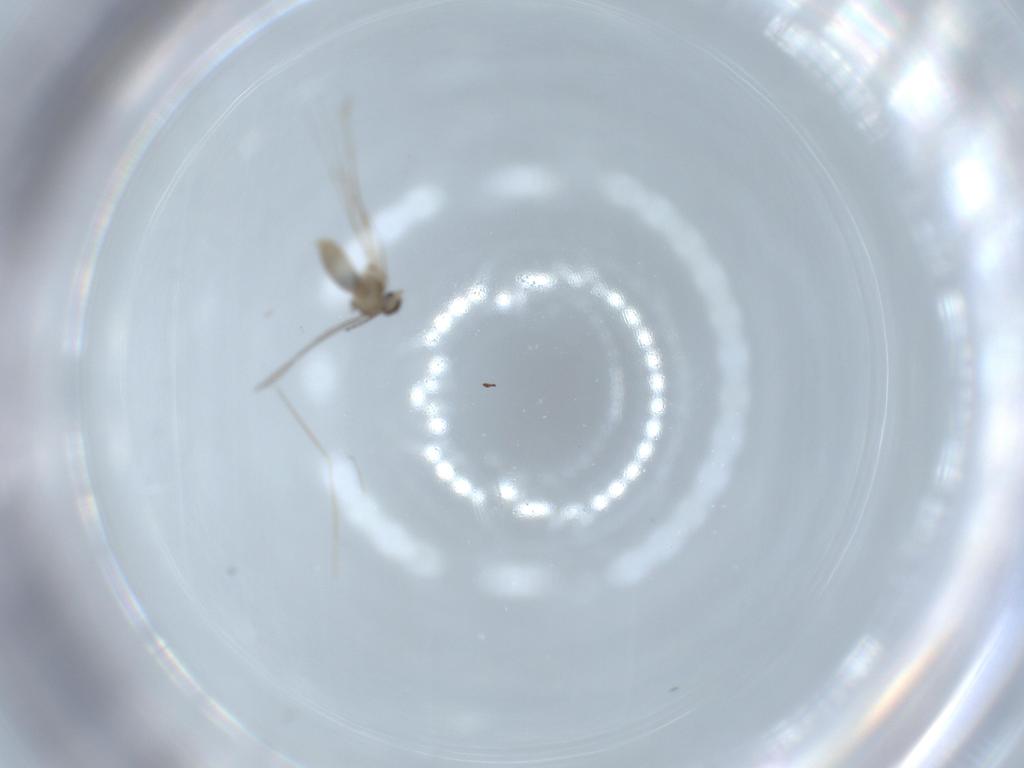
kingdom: Animalia
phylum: Arthropoda
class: Insecta
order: Diptera
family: Chironomidae
